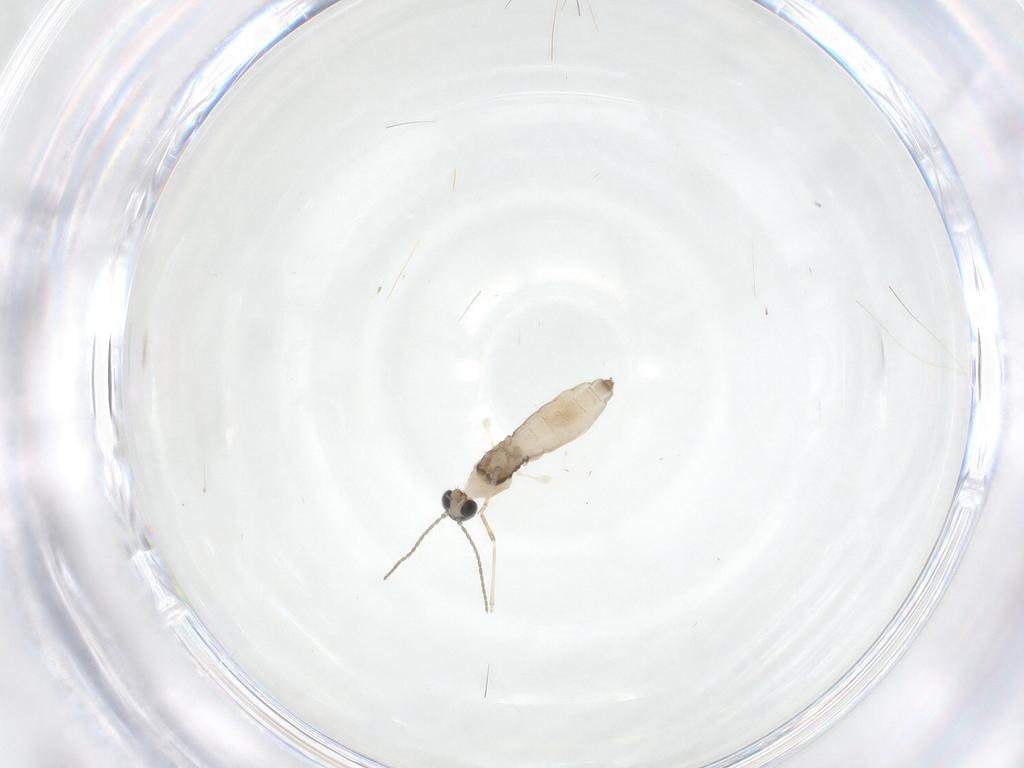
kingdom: Animalia
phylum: Arthropoda
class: Insecta
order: Diptera
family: Cecidomyiidae
